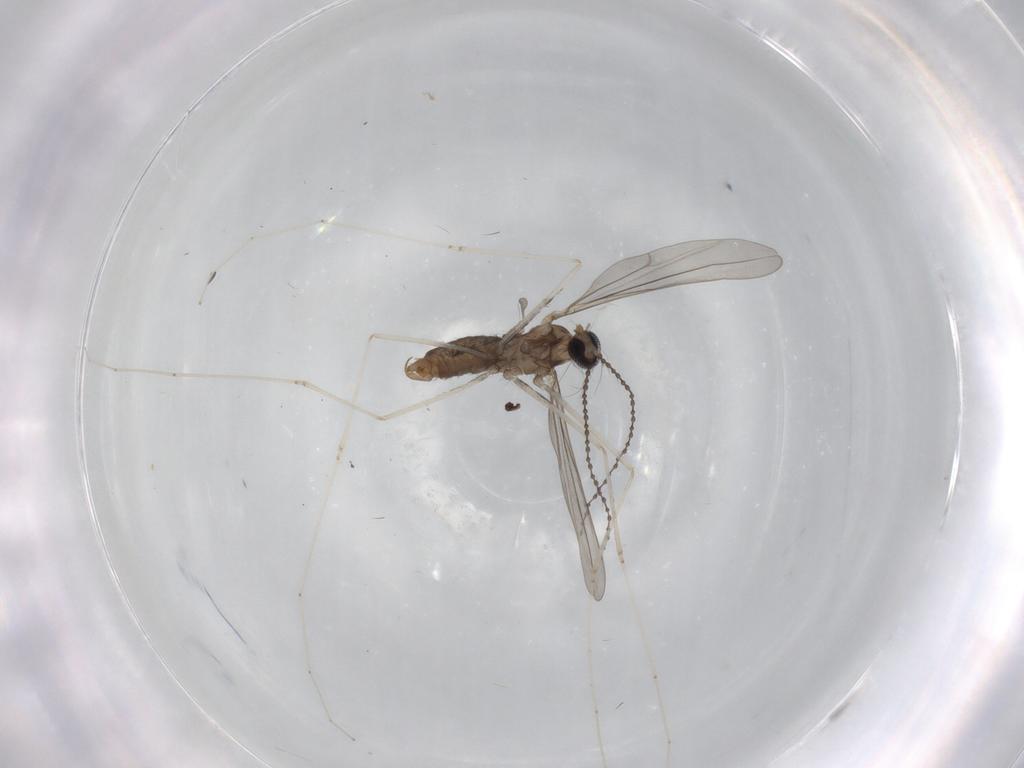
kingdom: Animalia
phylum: Arthropoda
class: Insecta
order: Diptera
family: Cecidomyiidae
